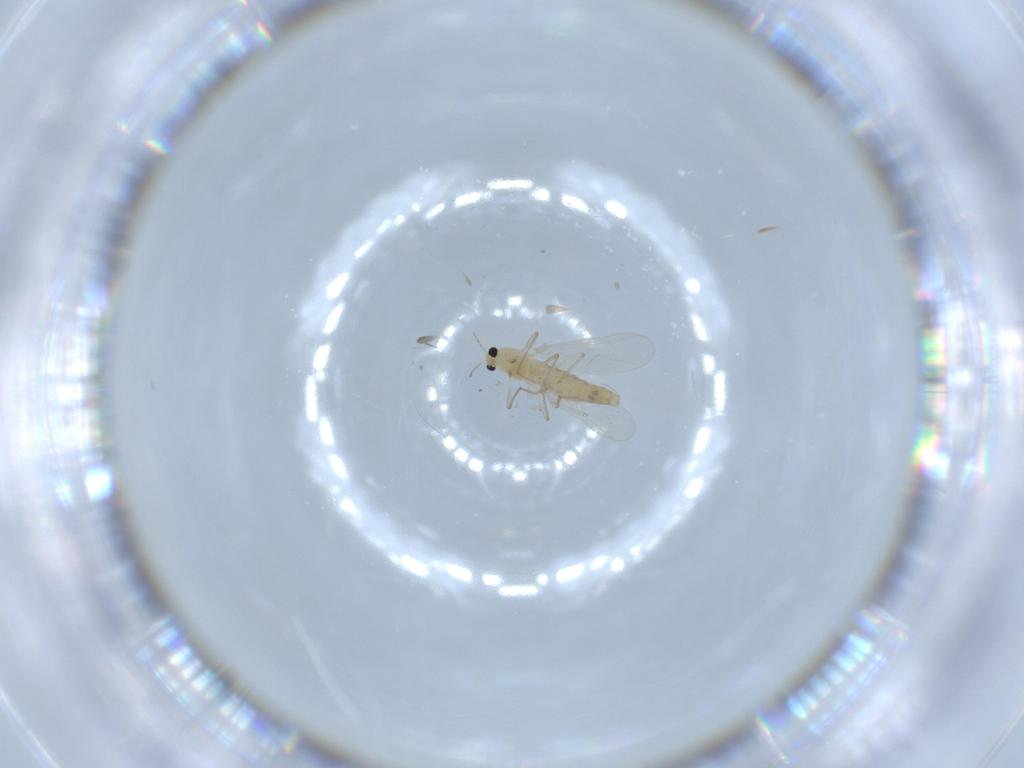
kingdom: Animalia
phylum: Arthropoda
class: Insecta
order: Diptera
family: Chironomidae
